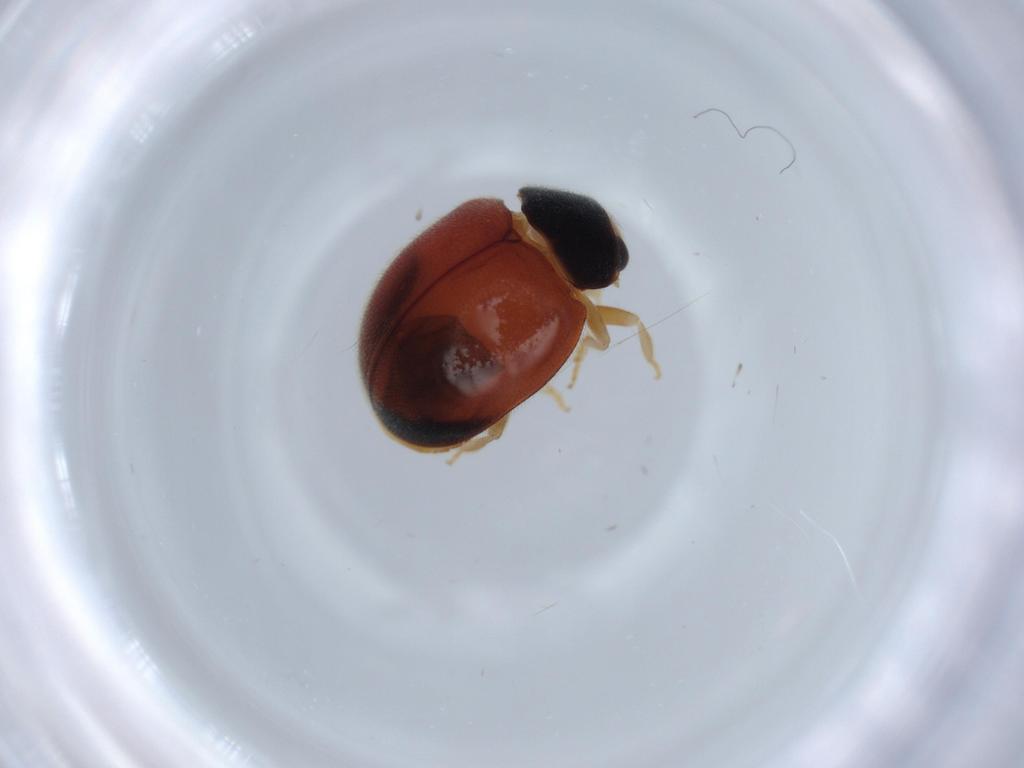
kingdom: Animalia
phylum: Arthropoda
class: Insecta
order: Coleoptera
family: Coccinellidae
